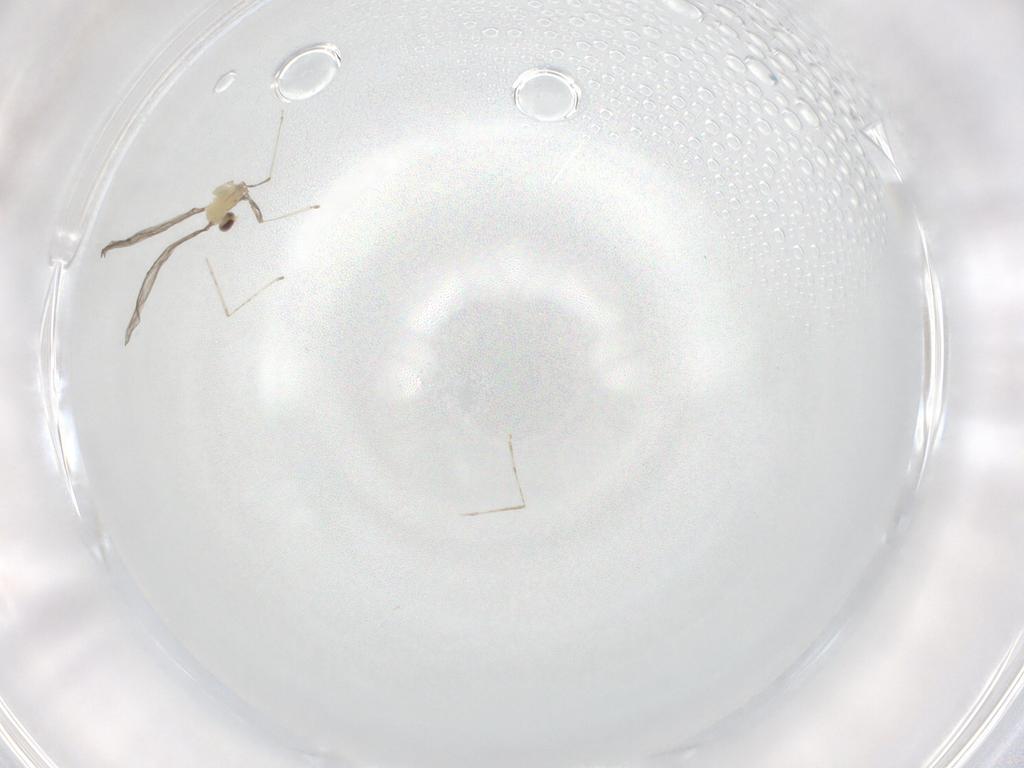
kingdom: Animalia
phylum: Arthropoda
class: Insecta
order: Diptera
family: Cecidomyiidae
